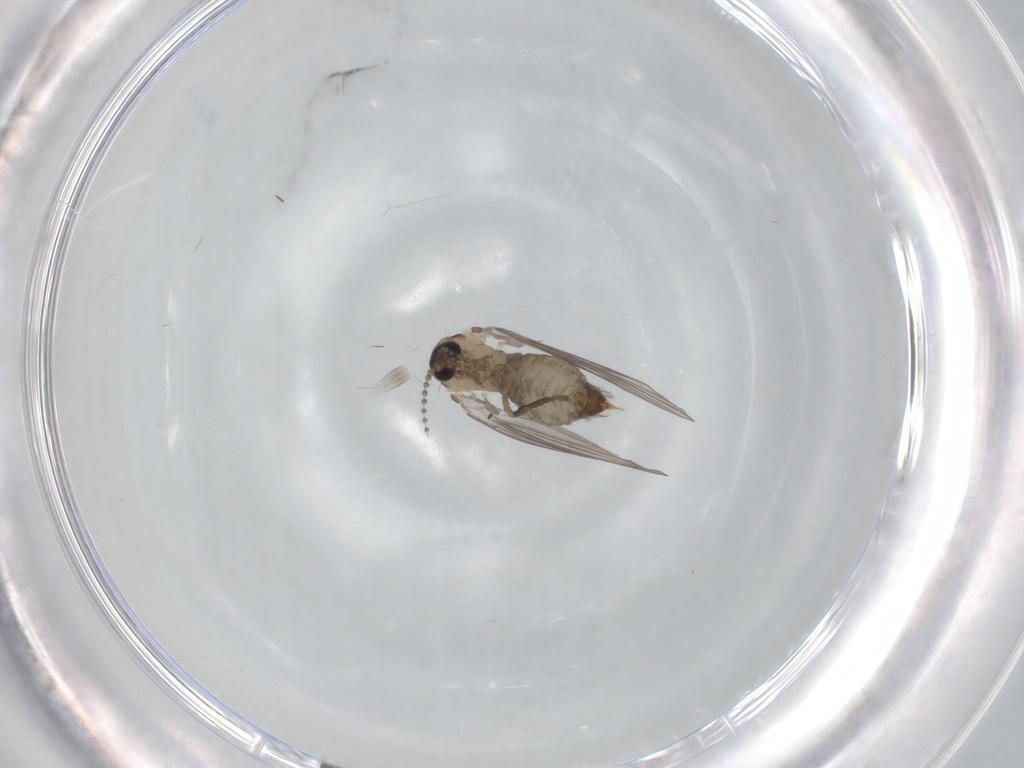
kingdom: Animalia
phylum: Arthropoda
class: Insecta
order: Diptera
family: Psychodidae
